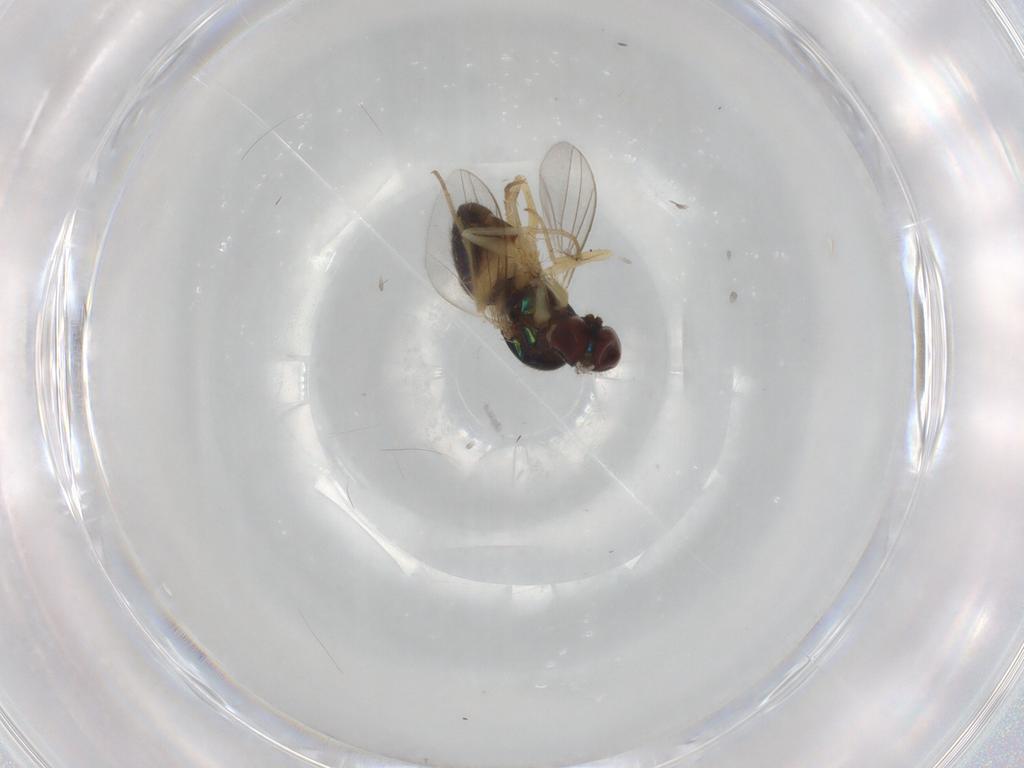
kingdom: Animalia
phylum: Arthropoda
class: Insecta
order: Diptera
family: Dolichopodidae
